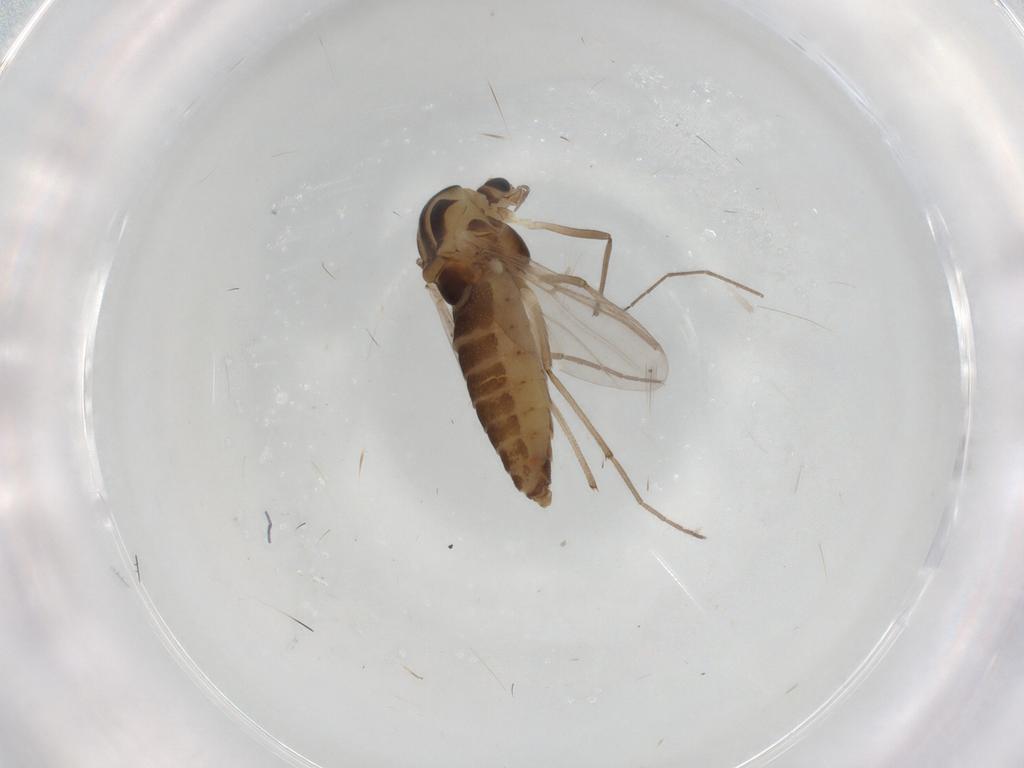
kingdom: Animalia
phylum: Arthropoda
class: Insecta
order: Diptera
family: Chironomidae
